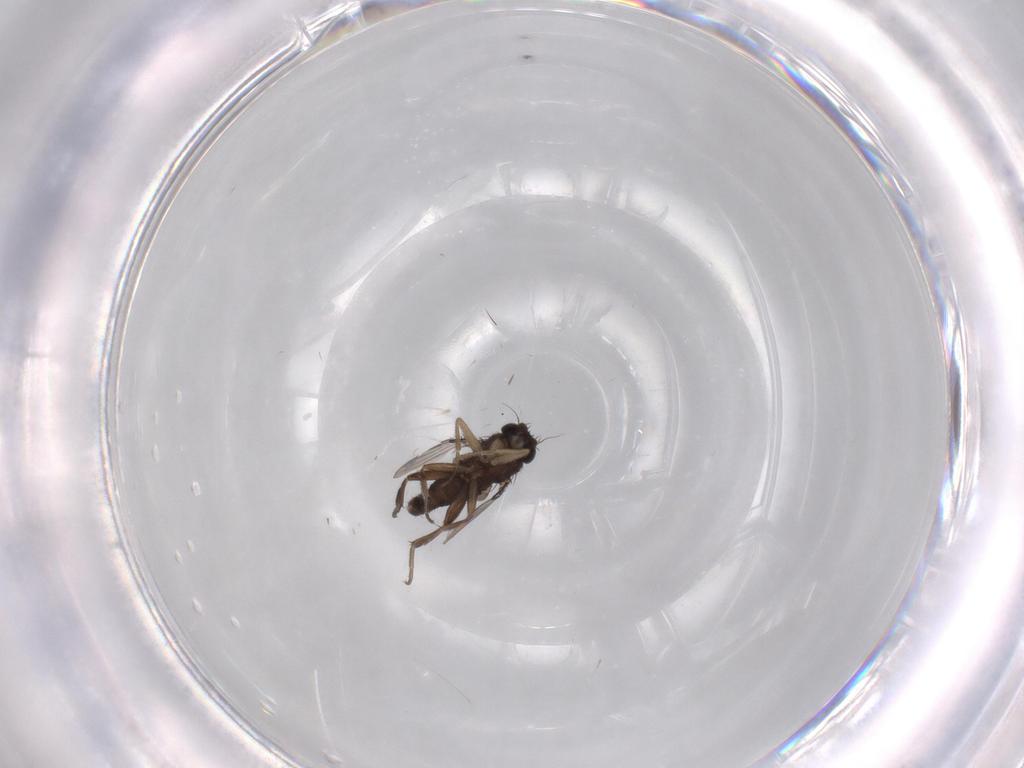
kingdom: Animalia
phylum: Arthropoda
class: Insecta
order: Diptera
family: Phoridae
